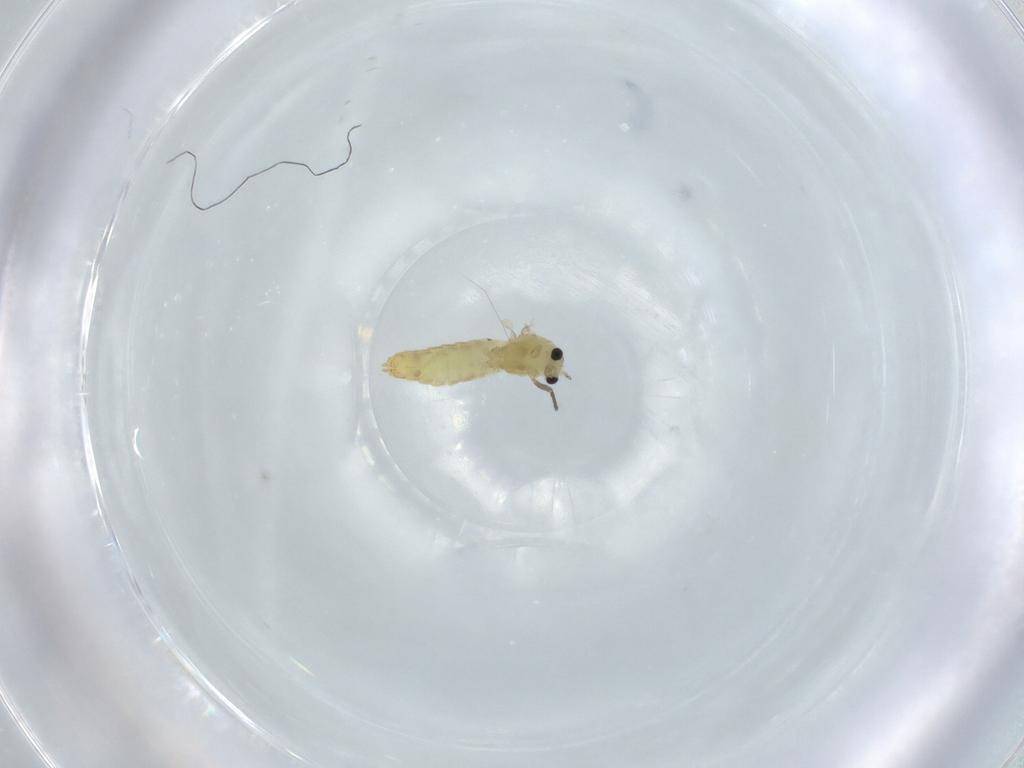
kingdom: Animalia
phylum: Arthropoda
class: Insecta
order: Diptera
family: Chironomidae
